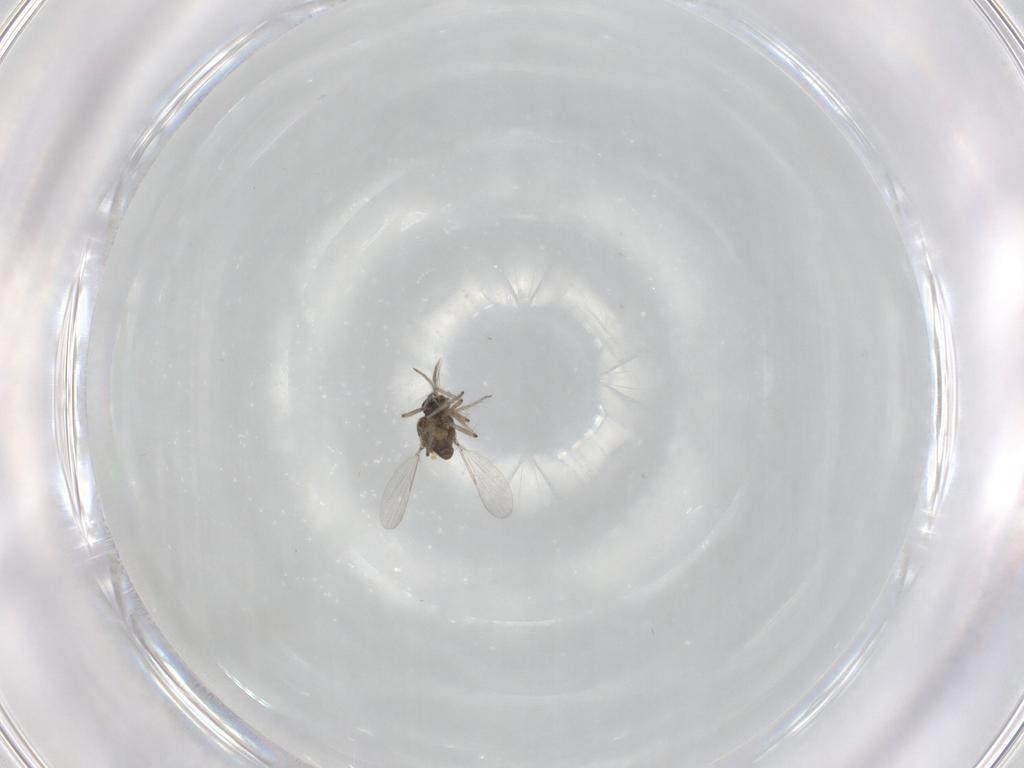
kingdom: Animalia
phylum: Arthropoda
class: Insecta
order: Diptera
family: Ceratopogonidae
